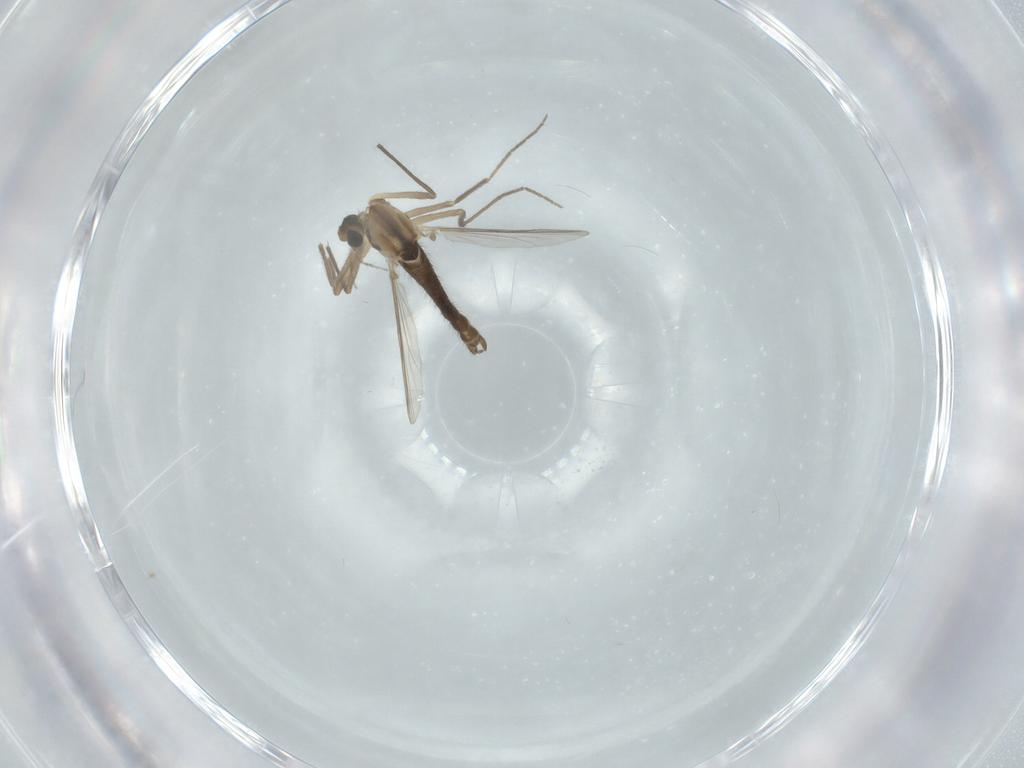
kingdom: Animalia
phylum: Arthropoda
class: Insecta
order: Diptera
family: Chironomidae
